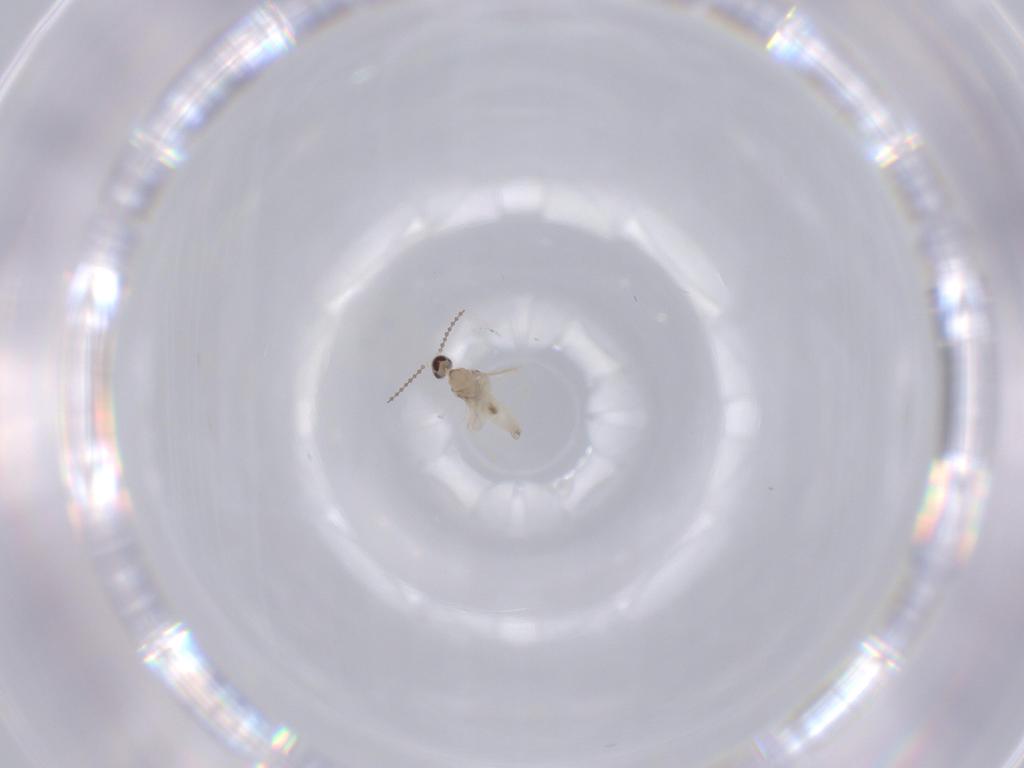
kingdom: Animalia
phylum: Arthropoda
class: Insecta
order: Diptera
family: Cecidomyiidae
